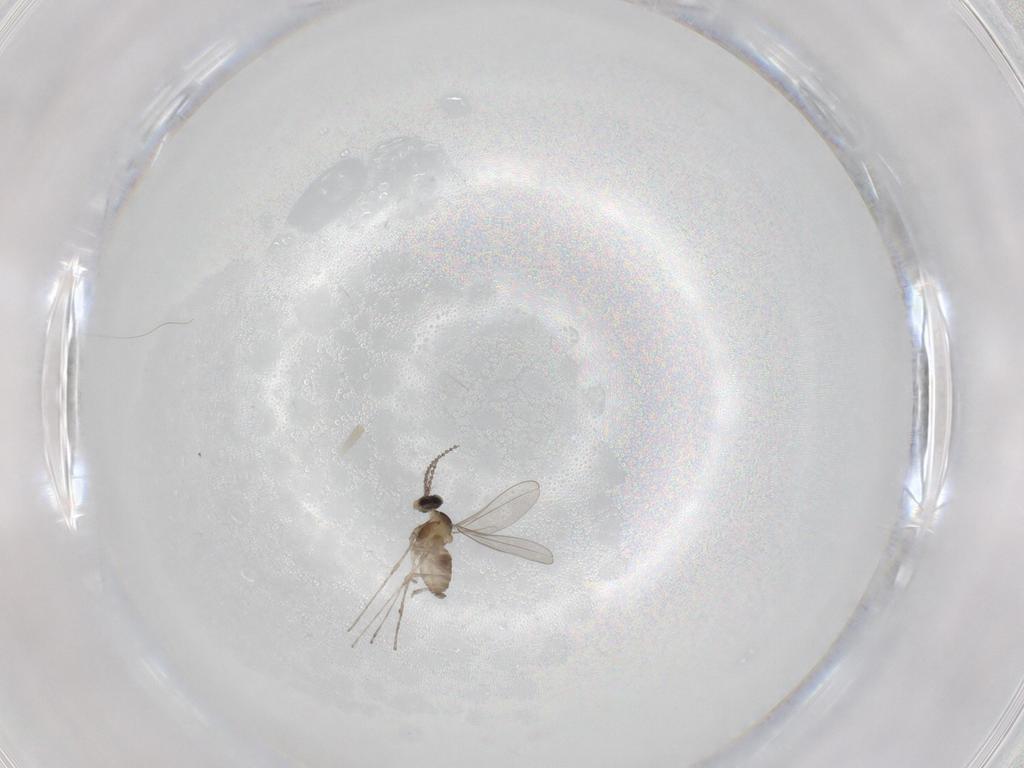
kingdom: Animalia
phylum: Arthropoda
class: Insecta
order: Diptera
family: Cecidomyiidae
